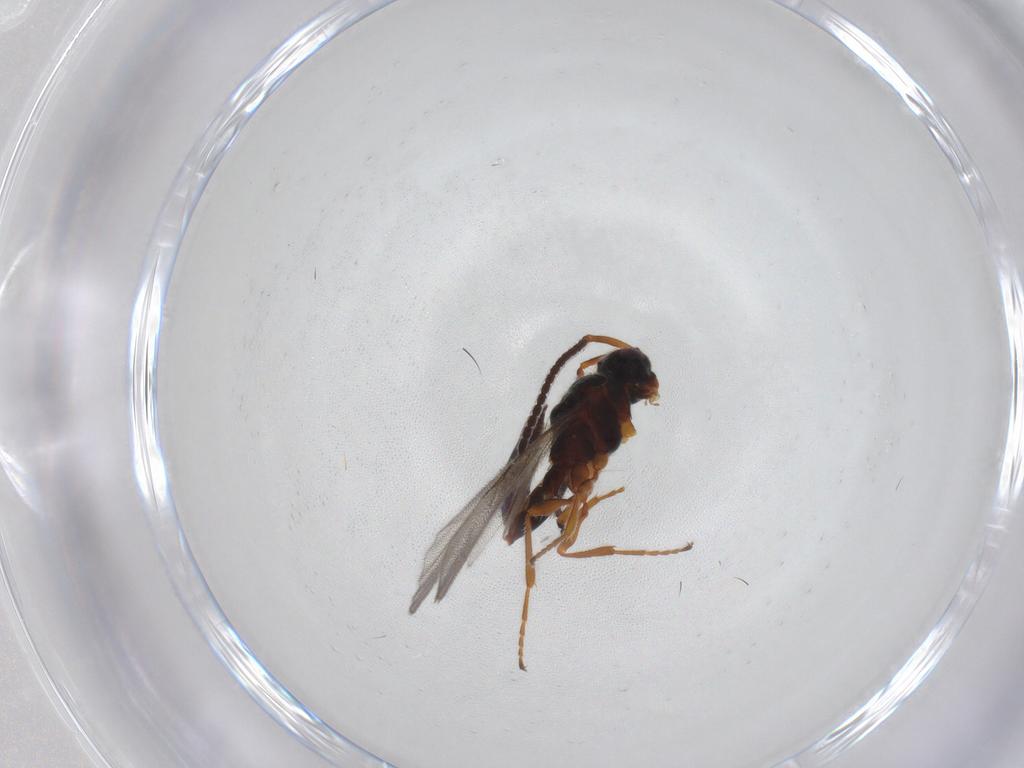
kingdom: Animalia
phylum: Arthropoda
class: Insecta
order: Hymenoptera
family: Diapriidae
